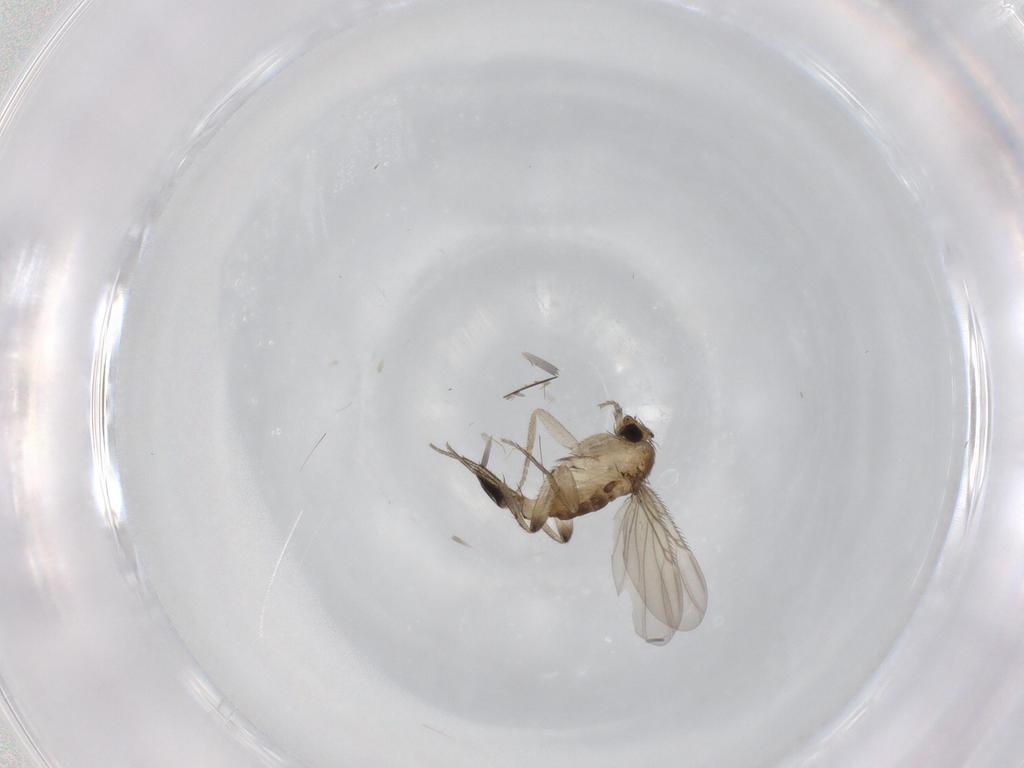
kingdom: Animalia
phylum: Arthropoda
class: Insecta
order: Diptera
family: Phoridae
